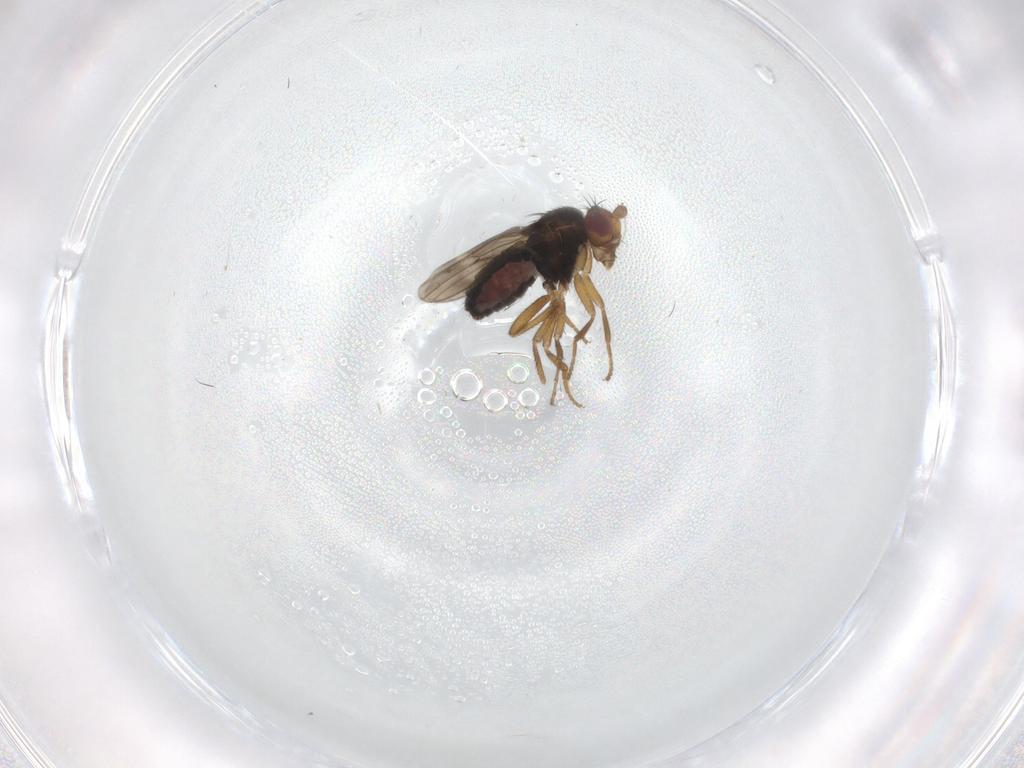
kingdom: Animalia
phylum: Arthropoda
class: Insecta
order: Diptera
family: Sphaeroceridae
